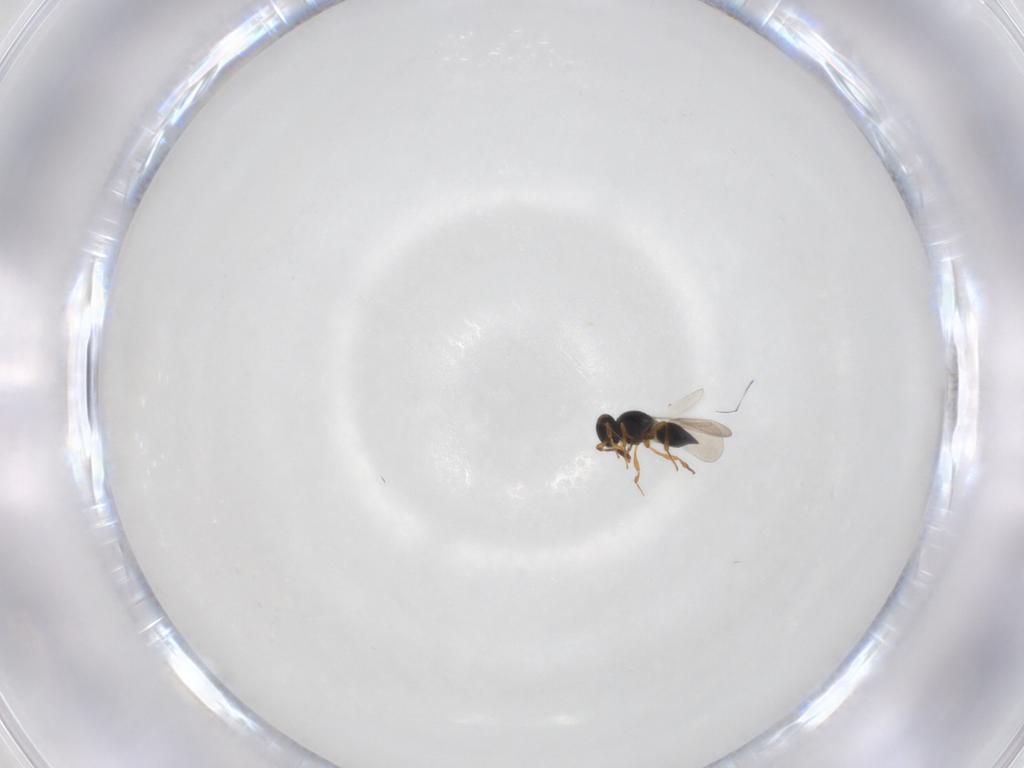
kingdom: Animalia
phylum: Arthropoda
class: Insecta
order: Hymenoptera
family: Platygastridae
